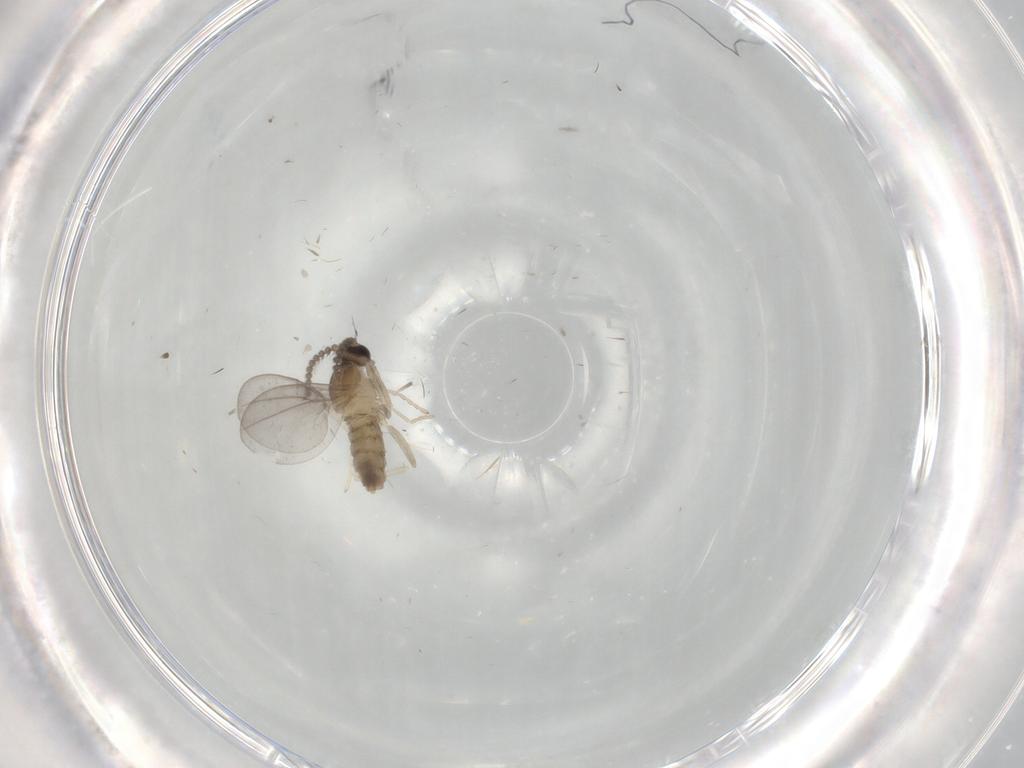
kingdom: Animalia
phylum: Arthropoda
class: Insecta
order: Diptera
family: Cecidomyiidae
